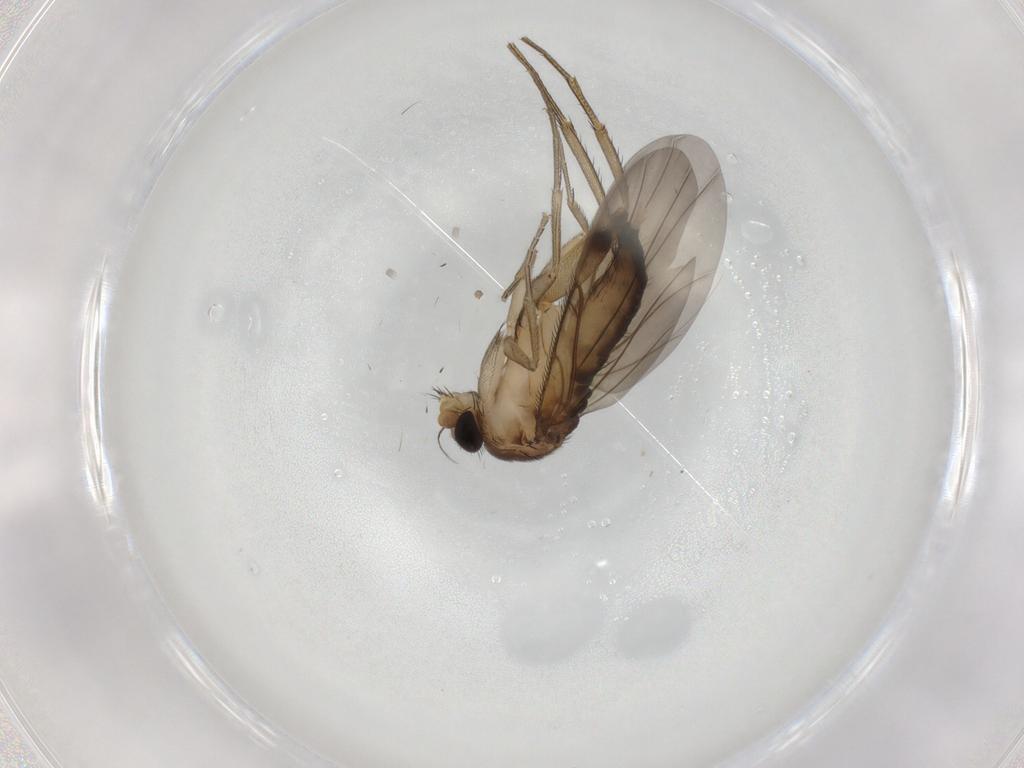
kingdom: Animalia
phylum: Arthropoda
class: Insecta
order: Diptera
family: Phoridae
